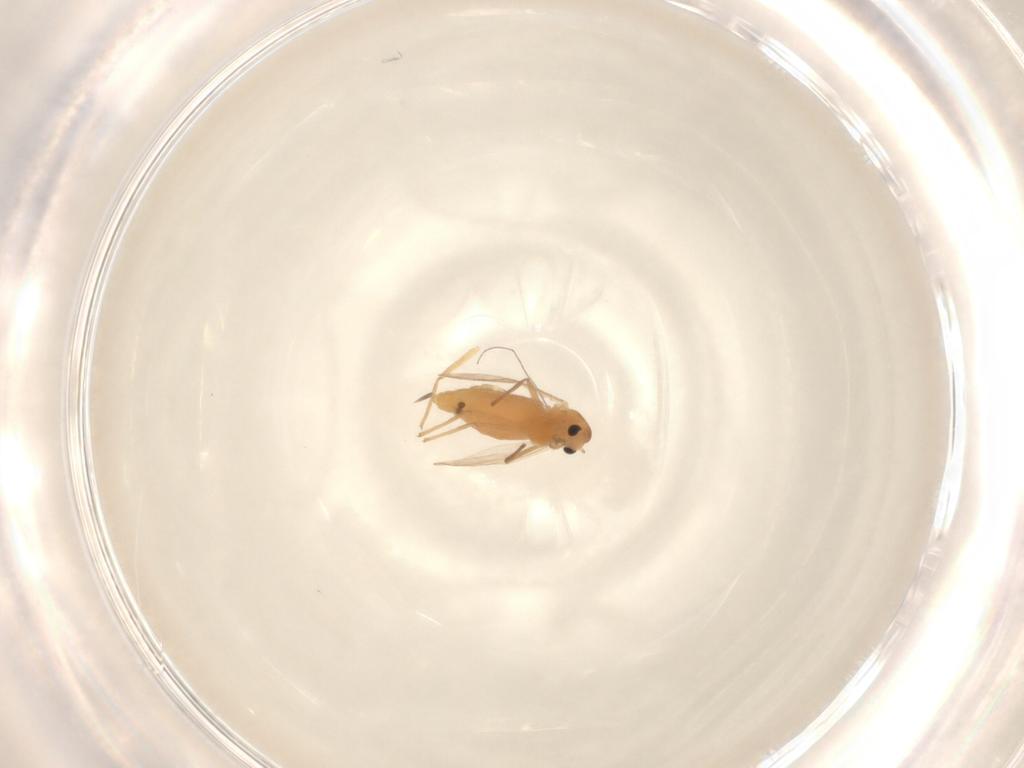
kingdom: Animalia
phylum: Arthropoda
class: Insecta
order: Diptera
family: Chironomidae
